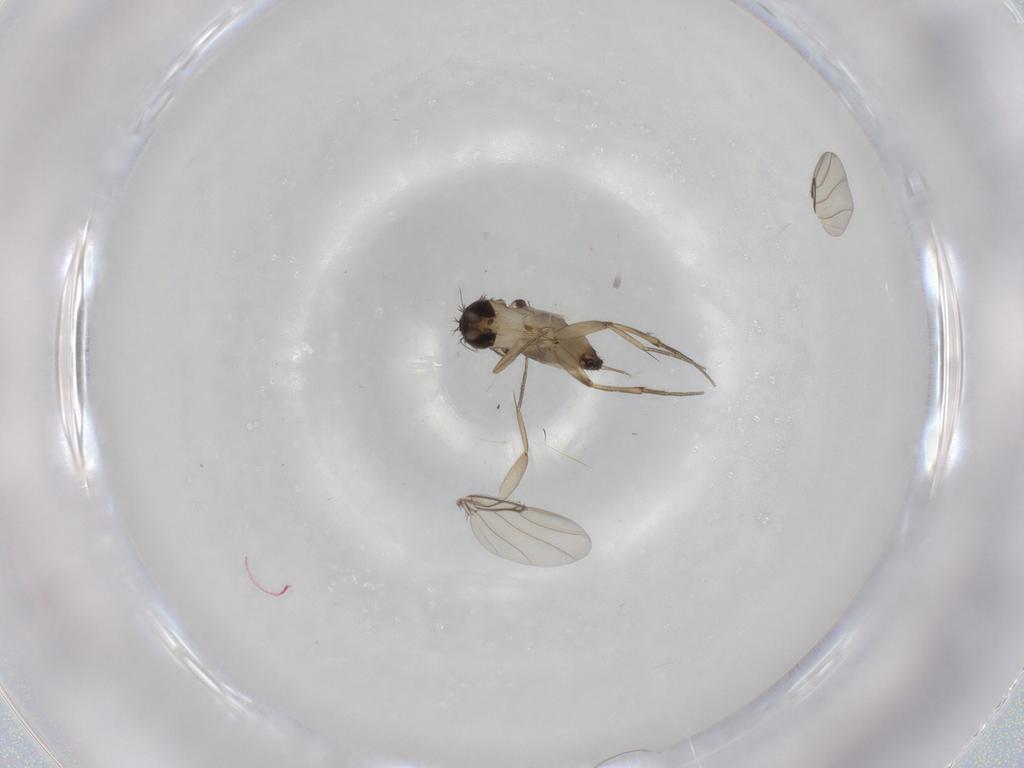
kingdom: Animalia
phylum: Arthropoda
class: Insecta
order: Diptera
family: Phoridae
